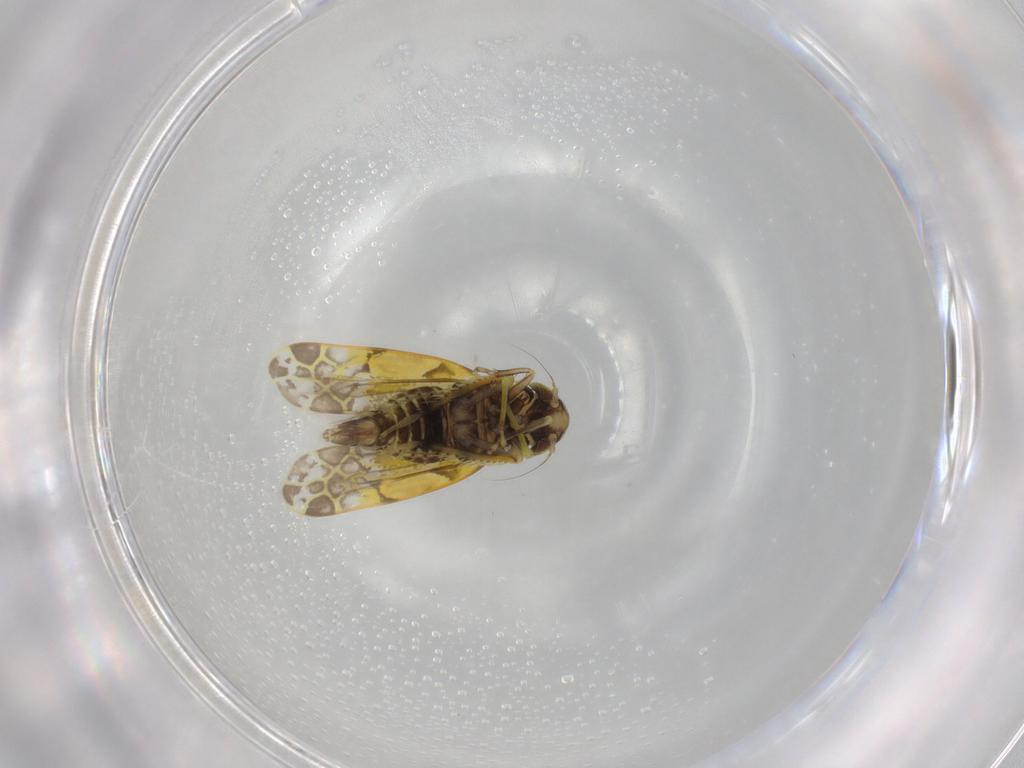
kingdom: Animalia
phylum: Arthropoda
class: Insecta
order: Hemiptera
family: Cicadellidae
